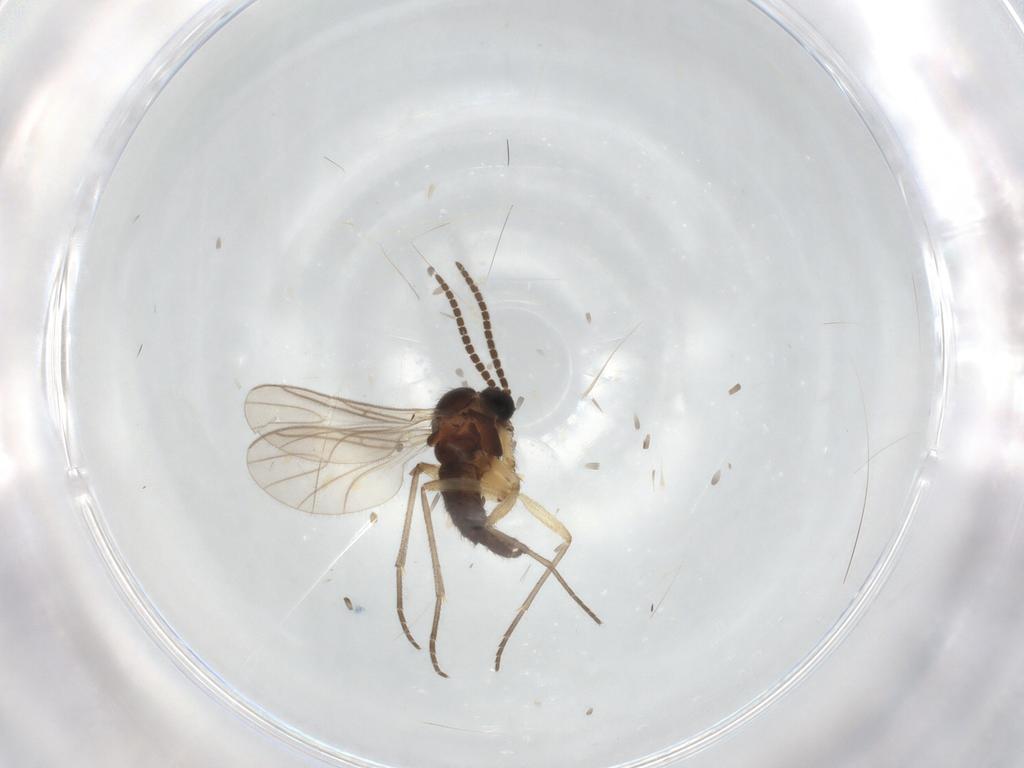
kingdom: Animalia
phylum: Arthropoda
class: Insecta
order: Diptera
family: Sciaridae
